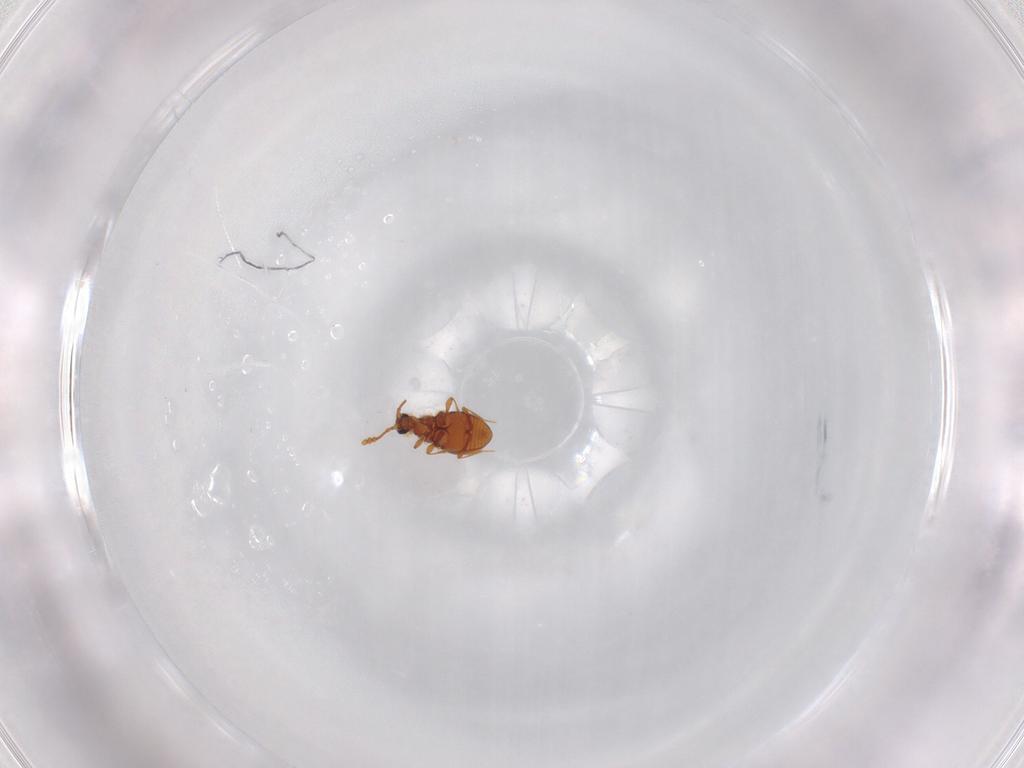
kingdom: Animalia
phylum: Arthropoda
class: Insecta
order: Coleoptera
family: Staphylinidae
